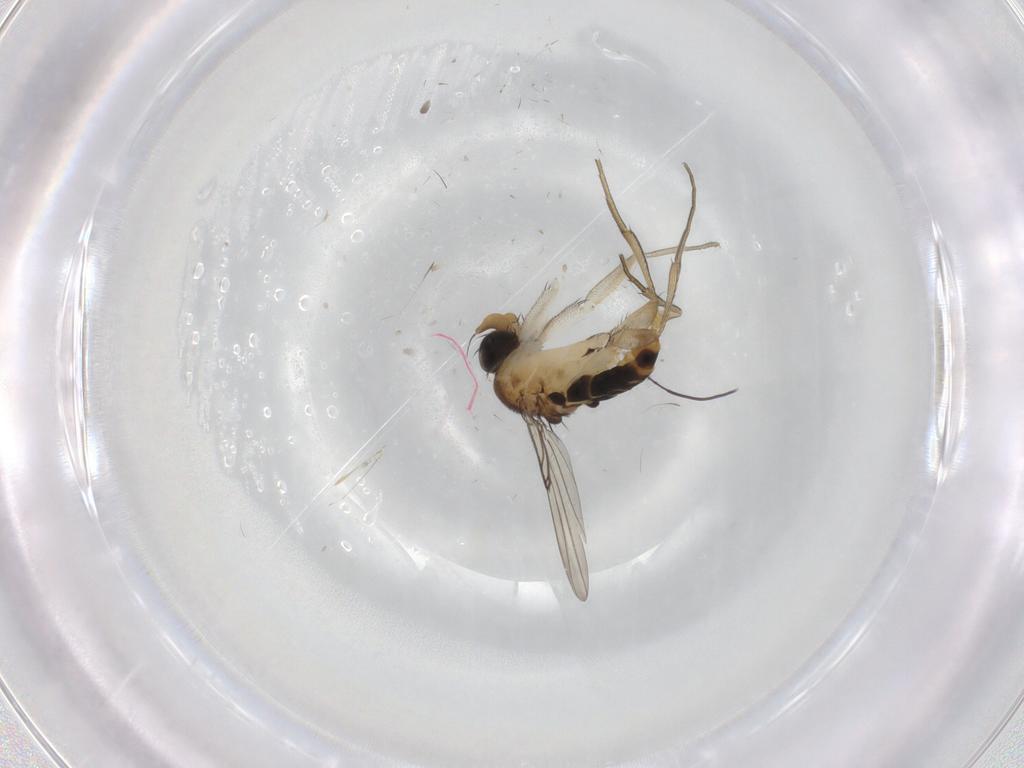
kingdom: Animalia
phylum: Arthropoda
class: Insecta
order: Diptera
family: Phoridae
